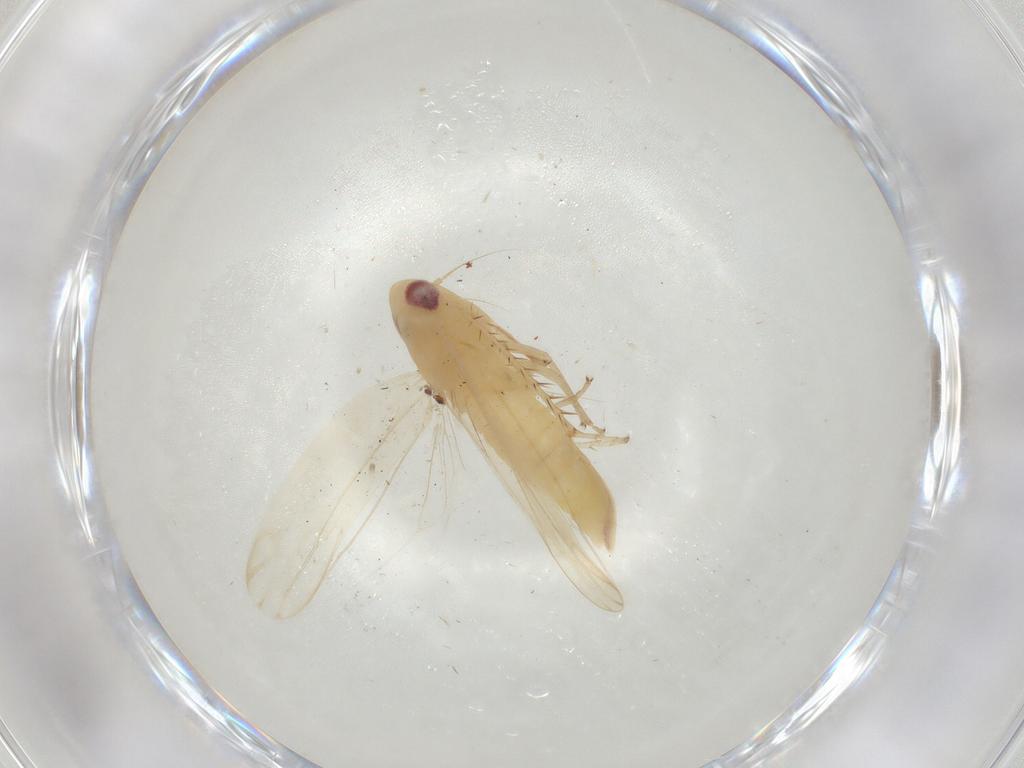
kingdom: Animalia
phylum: Arthropoda
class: Insecta
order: Hemiptera
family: Cicadellidae
